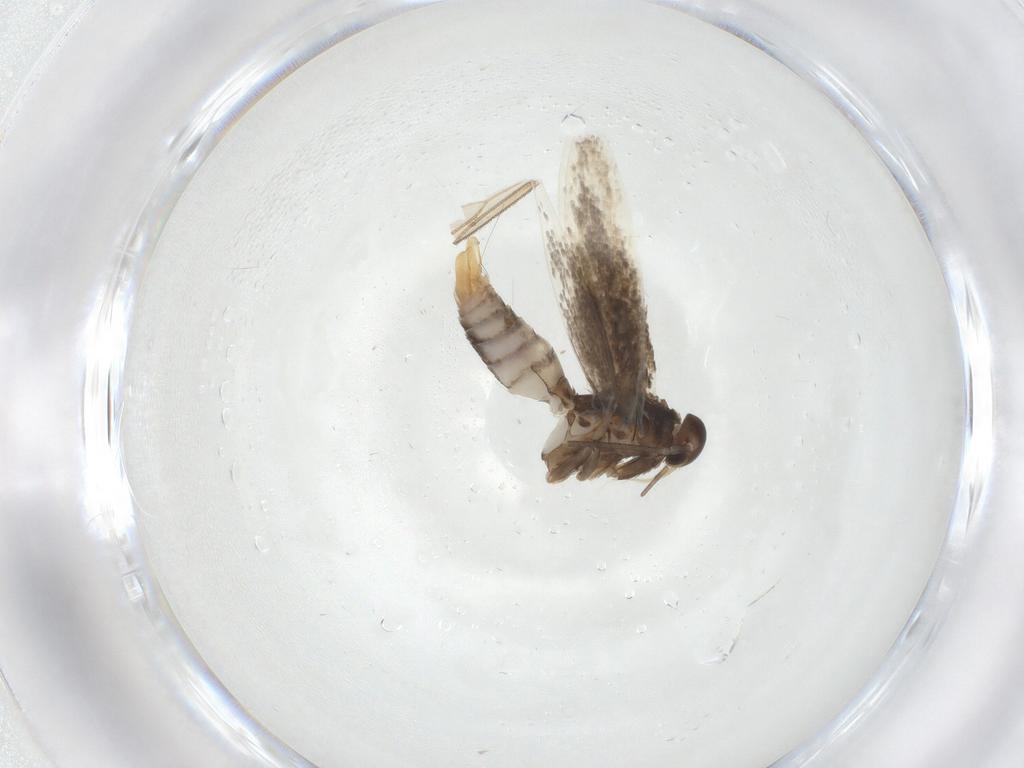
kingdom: Animalia
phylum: Arthropoda
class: Insecta
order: Lepidoptera
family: Elachistidae
